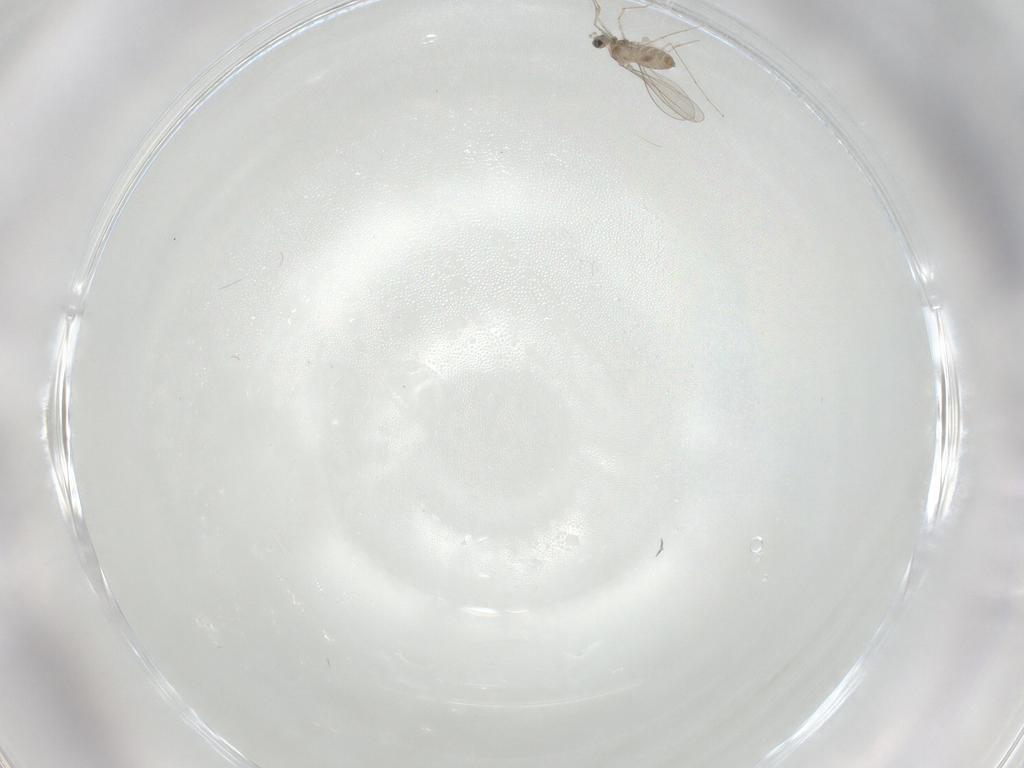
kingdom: Animalia
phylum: Arthropoda
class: Insecta
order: Diptera
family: Cecidomyiidae
